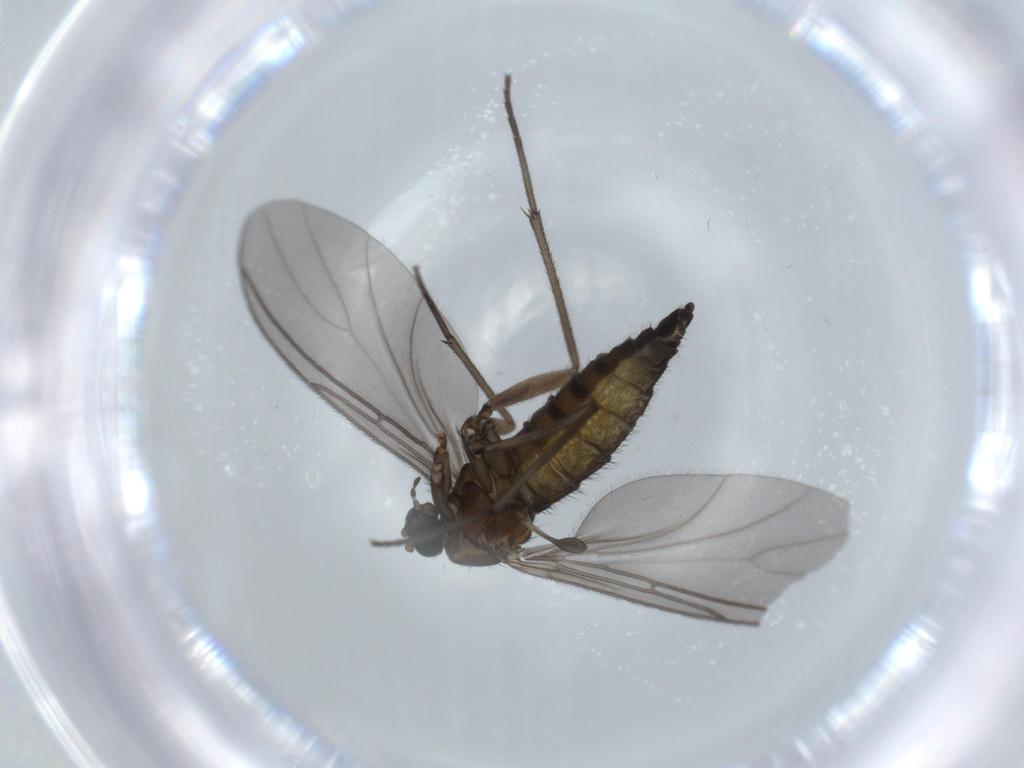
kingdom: Animalia
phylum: Arthropoda
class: Insecta
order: Diptera
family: Sciaridae
